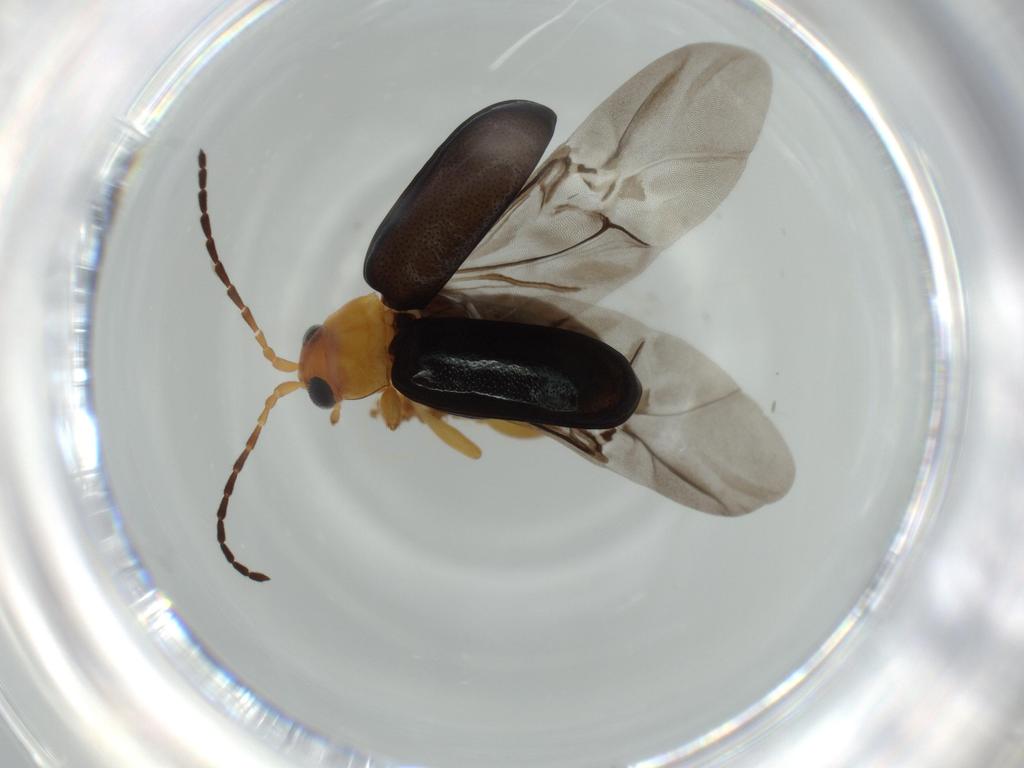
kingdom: Animalia
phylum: Arthropoda
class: Insecta
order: Coleoptera
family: Chrysomelidae
